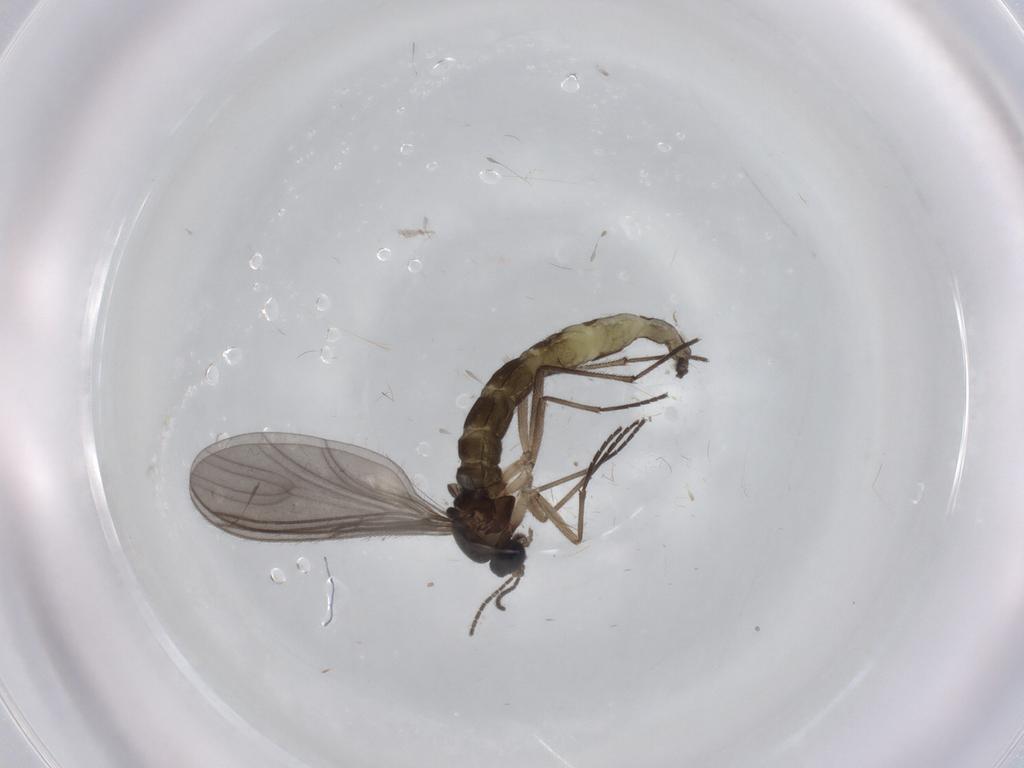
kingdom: Animalia
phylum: Arthropoda
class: Insecta
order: Diptera
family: Sciaridae
